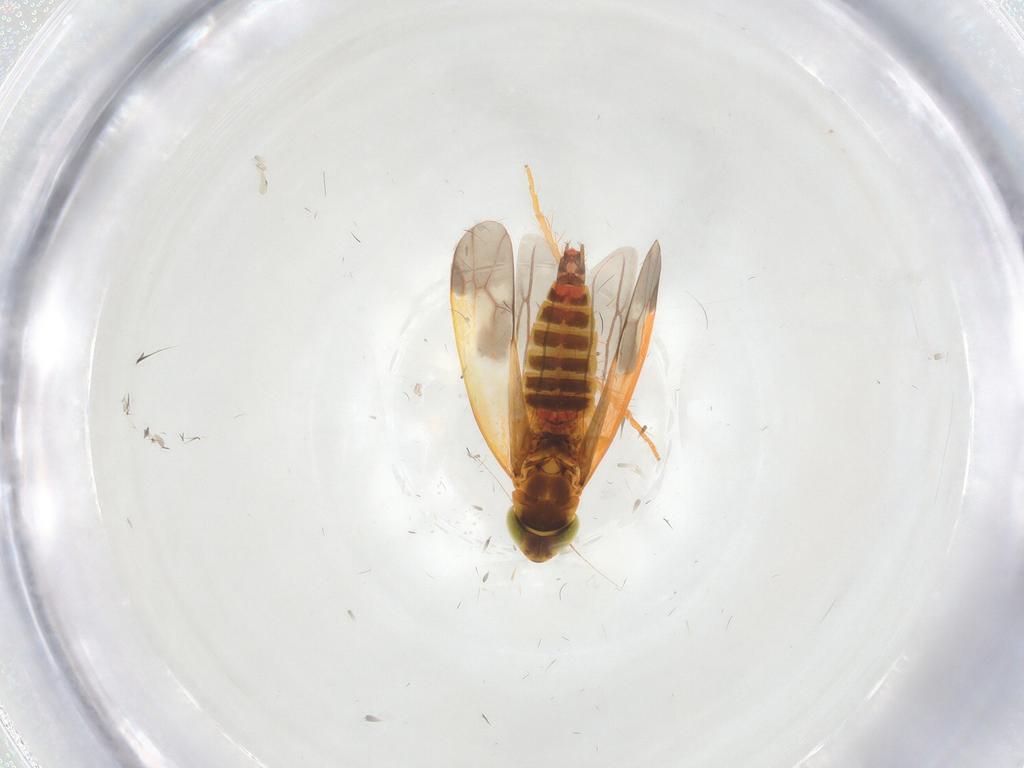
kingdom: Animalia
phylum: Arthropoda
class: Insecta
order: Hemiptera
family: Cicadellidae
